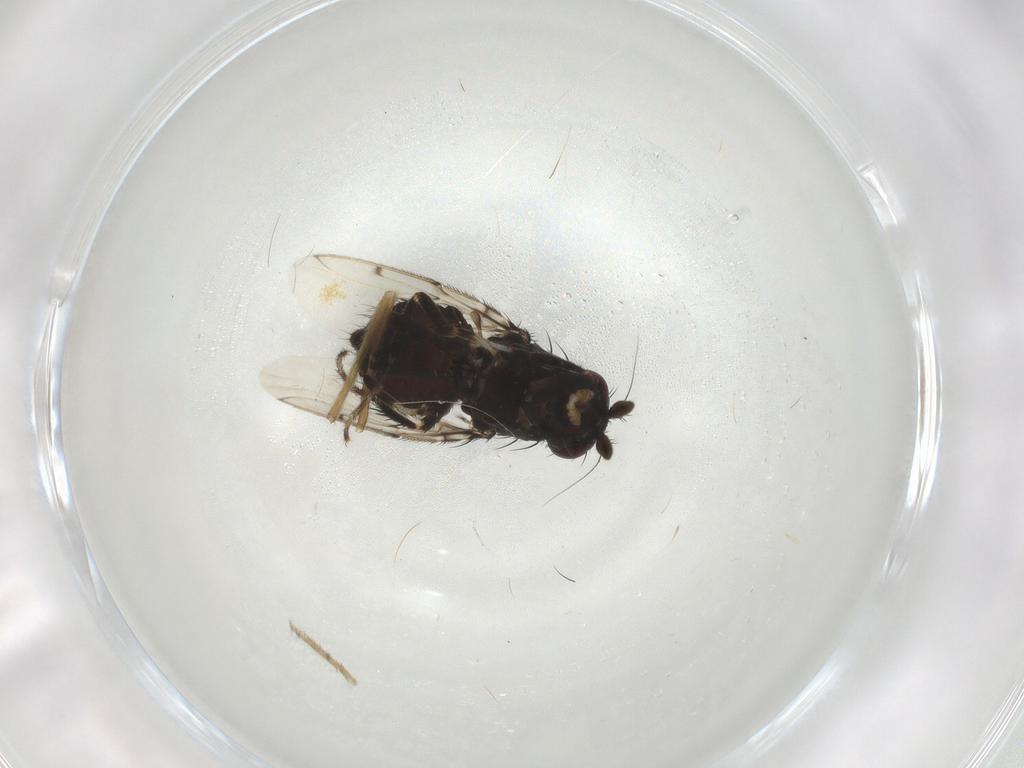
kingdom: Animalia
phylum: Arthropoda
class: Insecta
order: Diptera
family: Sphaeroceridae
